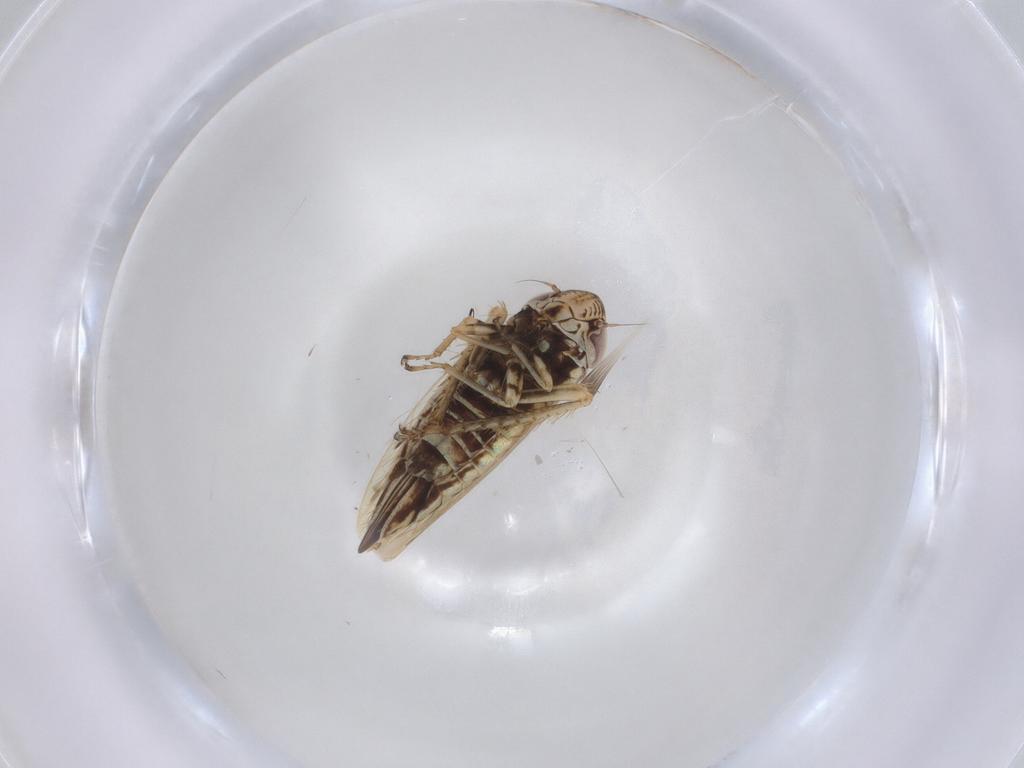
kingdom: Animalia
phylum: Arthropoda
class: Insecta
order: Hemiptera
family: Cicadellidae
